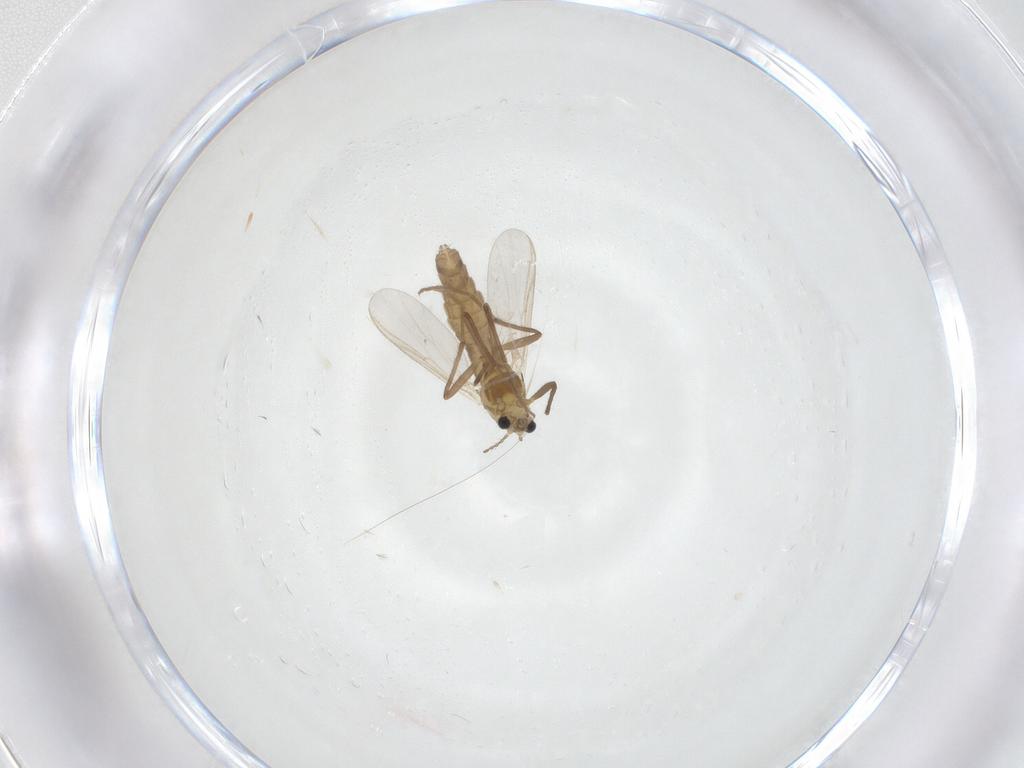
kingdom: Animalia
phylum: Arthropoda
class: Insecta
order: Diptera
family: Chironomidae
